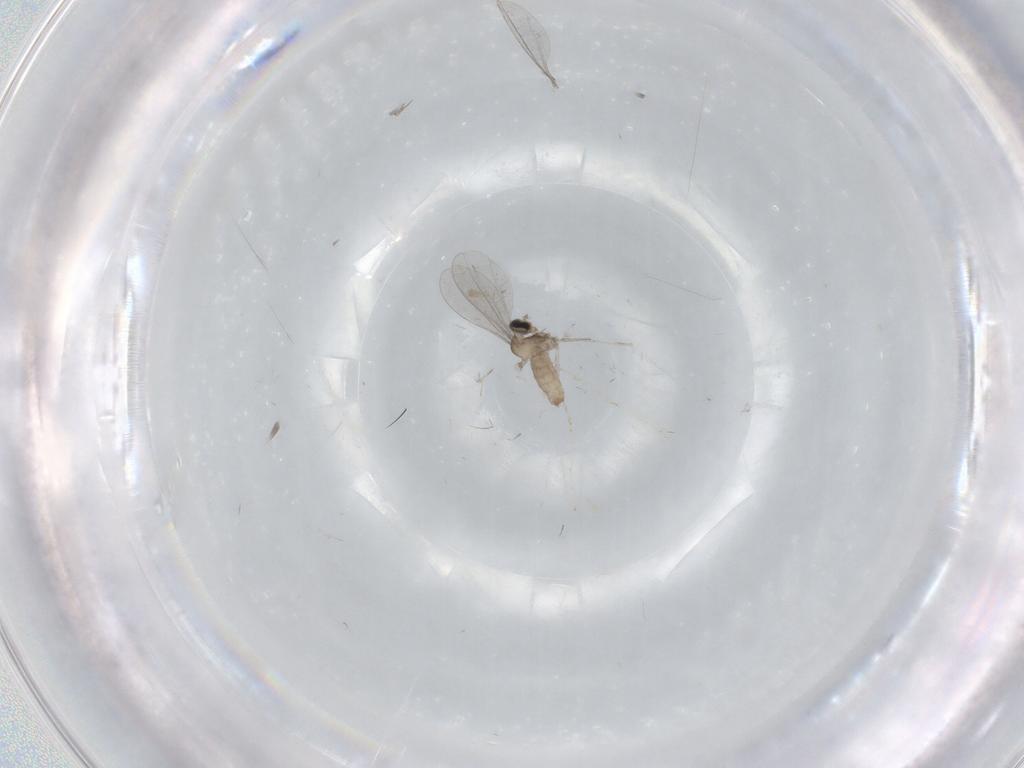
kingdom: Animalia
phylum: Arthropoda
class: Insecta
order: Diptera
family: Cecidomyiidae
